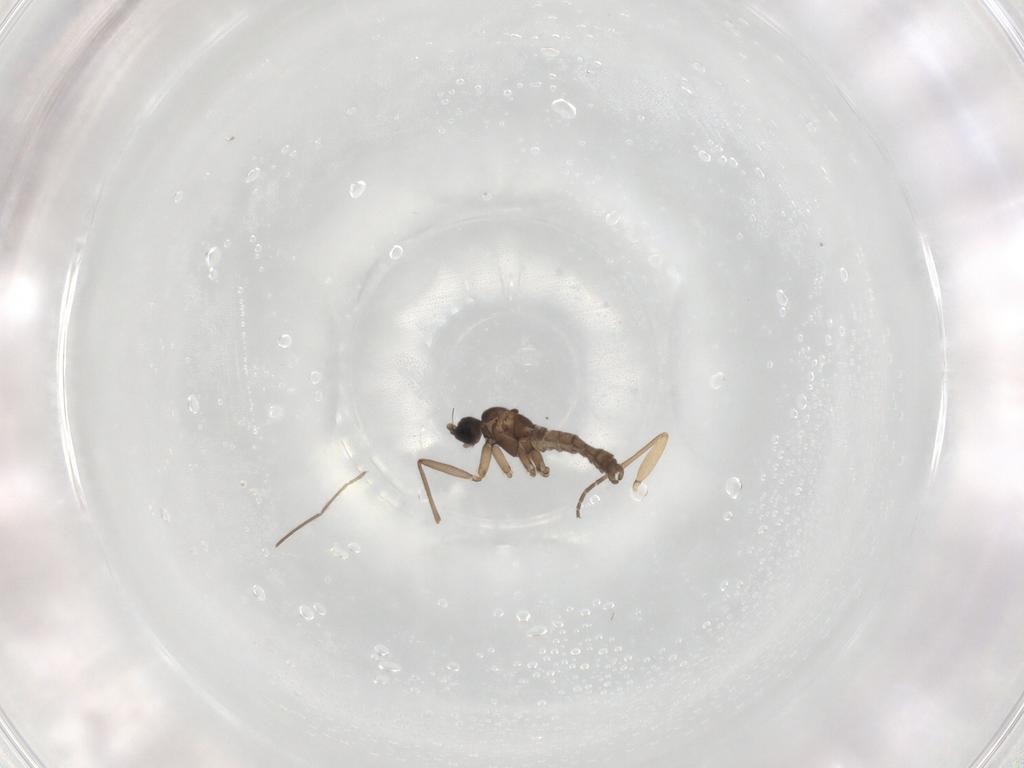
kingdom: Animalia
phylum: Arthropoda
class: Insecta
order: Diptera
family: Sciaridae
